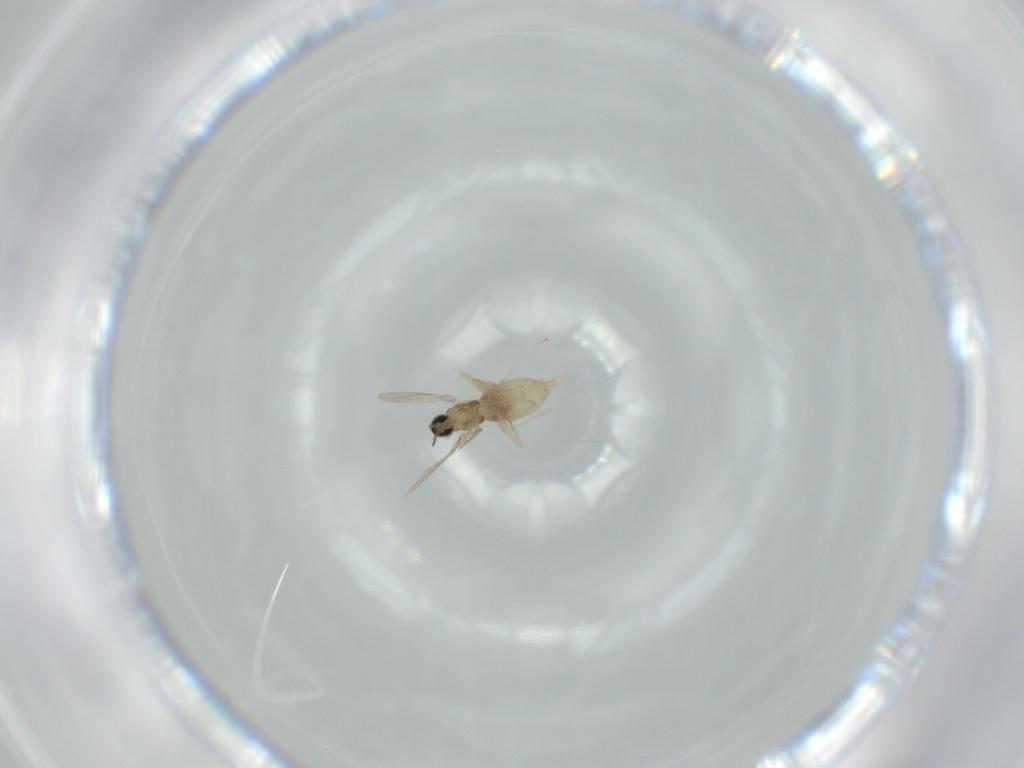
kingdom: Animalia
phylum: Arthropoda
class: Insecta
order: Diptera
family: Cecidomyiidae
